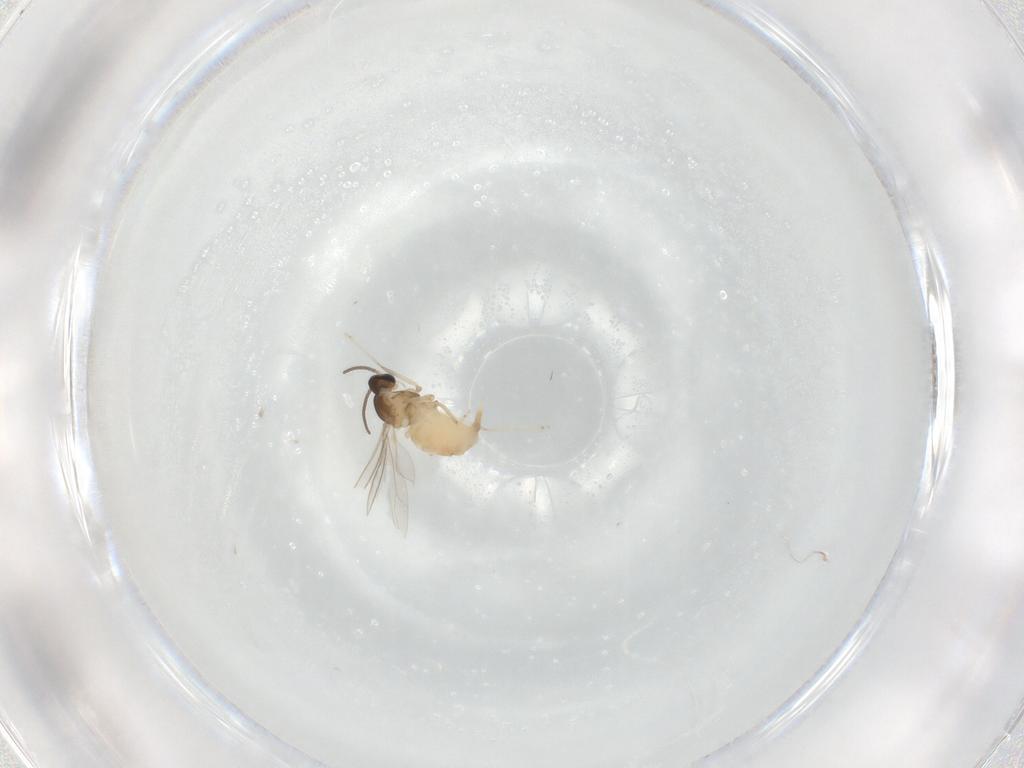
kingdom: Animalia
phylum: Arthropoda
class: Insecta
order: Diptera
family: Cecidomyiidae
